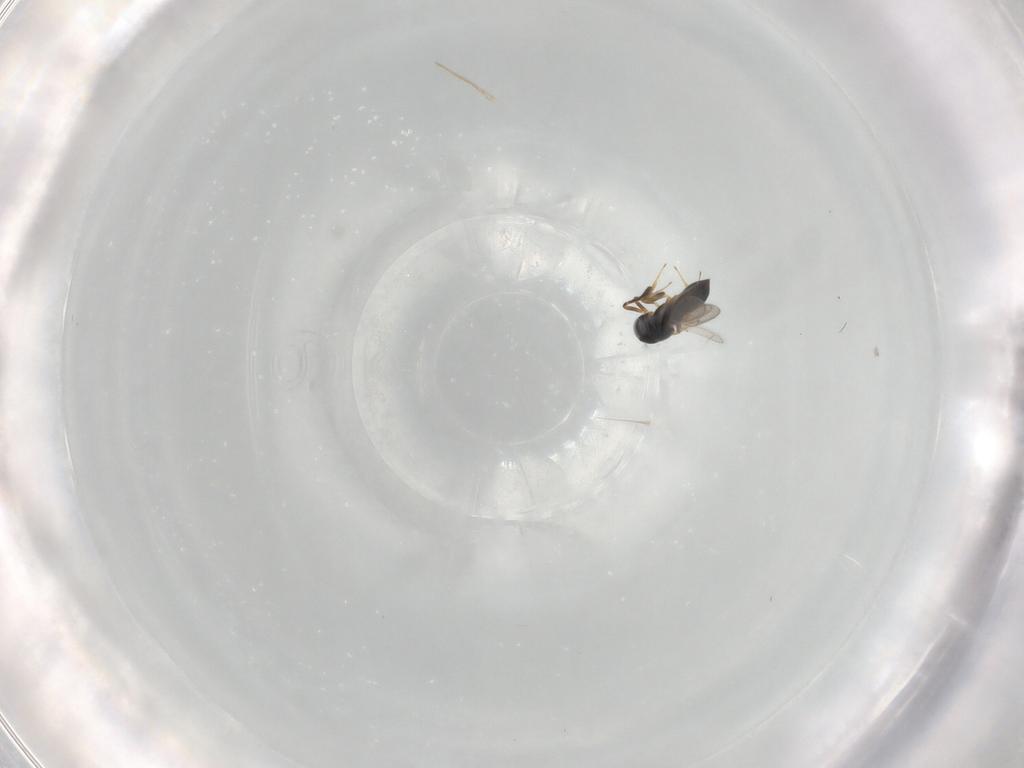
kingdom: Animalia
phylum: Arthropoda
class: Insecta
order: Hymenoptera
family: Scelionidae
